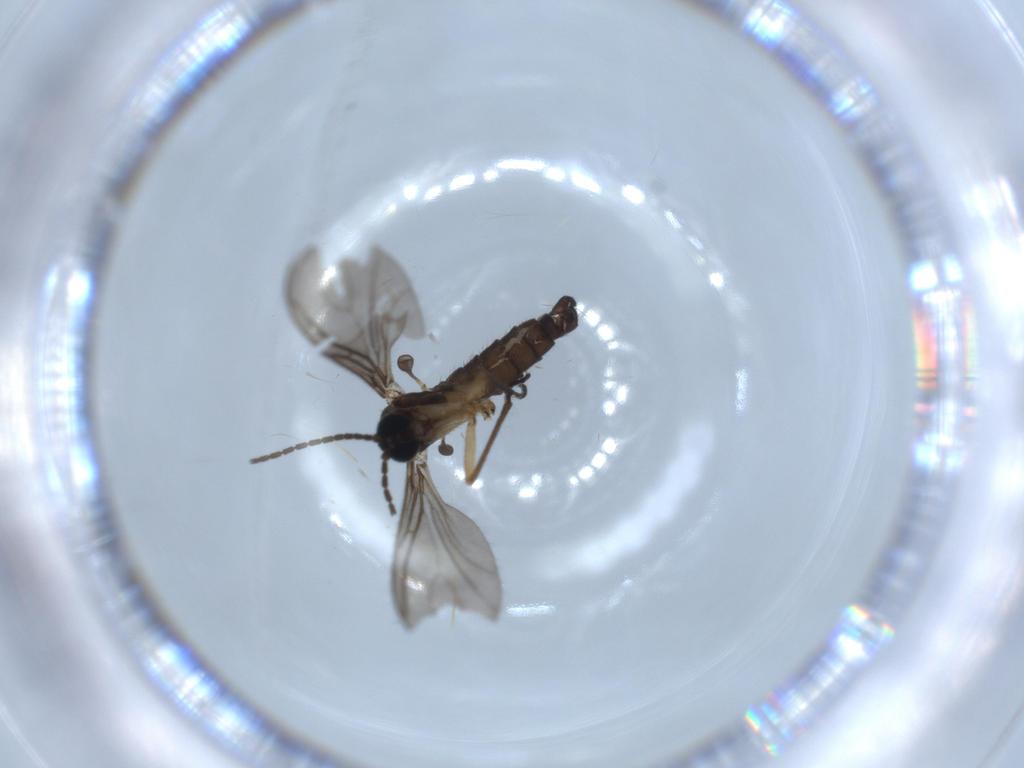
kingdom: Animalia
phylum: Arthropoda
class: Insecta
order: Diptera
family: Sciaridae
